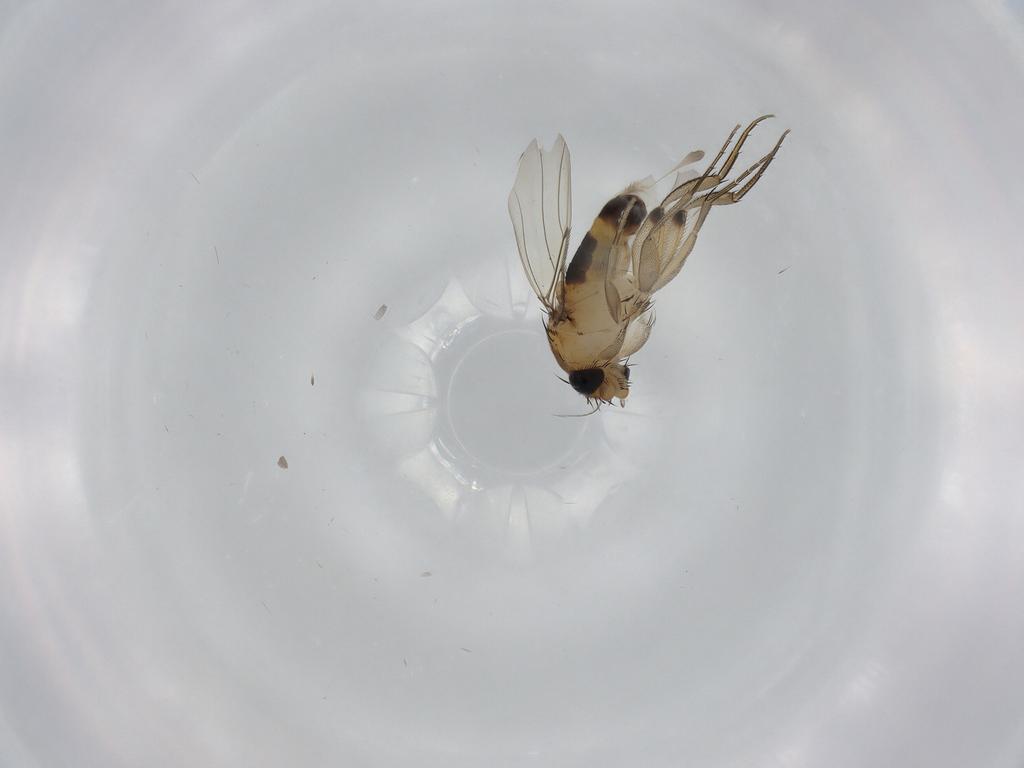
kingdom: Animalia
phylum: Arthropoda
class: Insecta
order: Diptera
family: Phoridae
